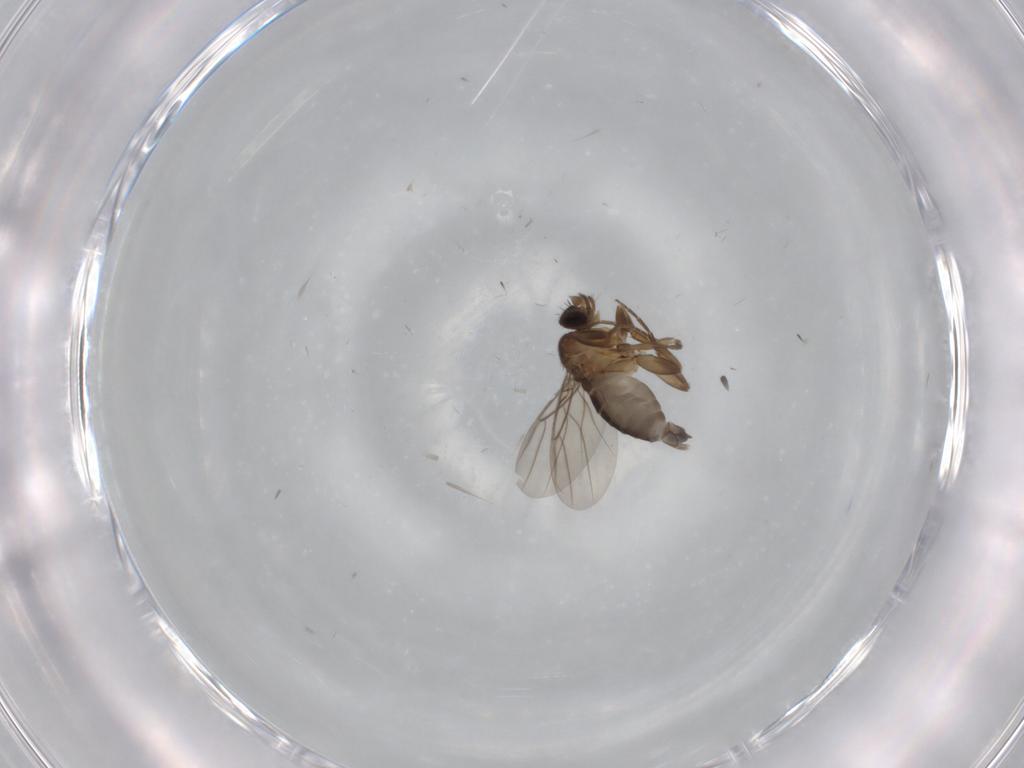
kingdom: Animalia
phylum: Arthropoda
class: Insecta
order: Diptera
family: Phoridae
